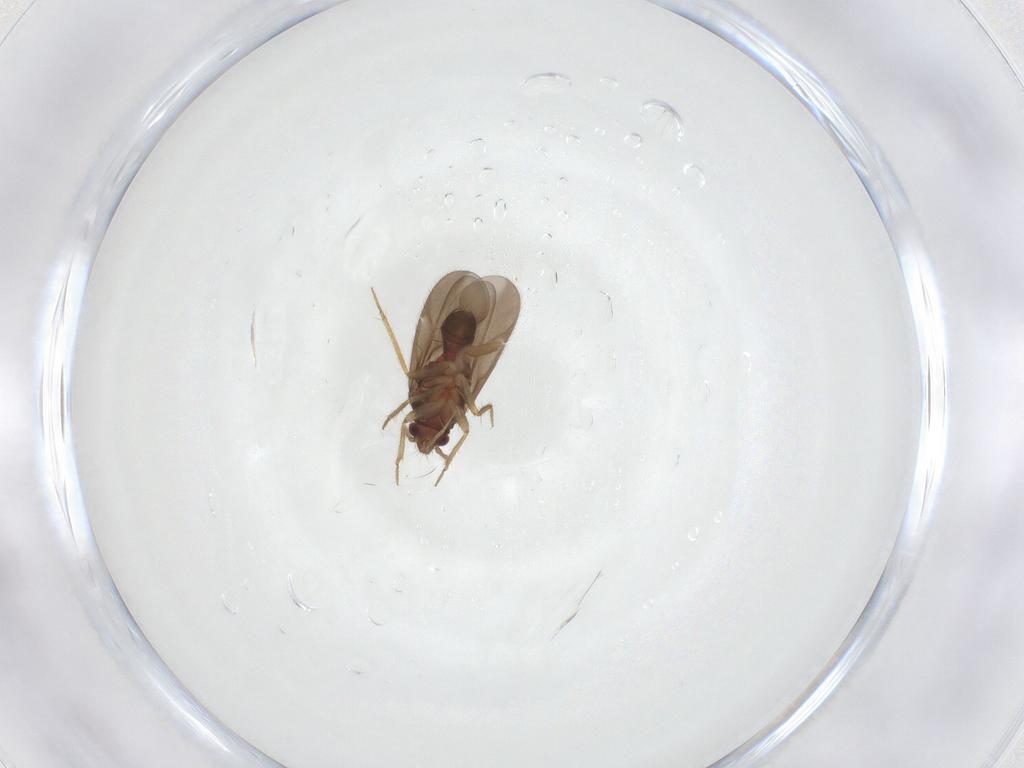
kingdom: Animalia
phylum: Arthropoda
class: Insecta
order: Hemiptera
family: Ceratocombidae
